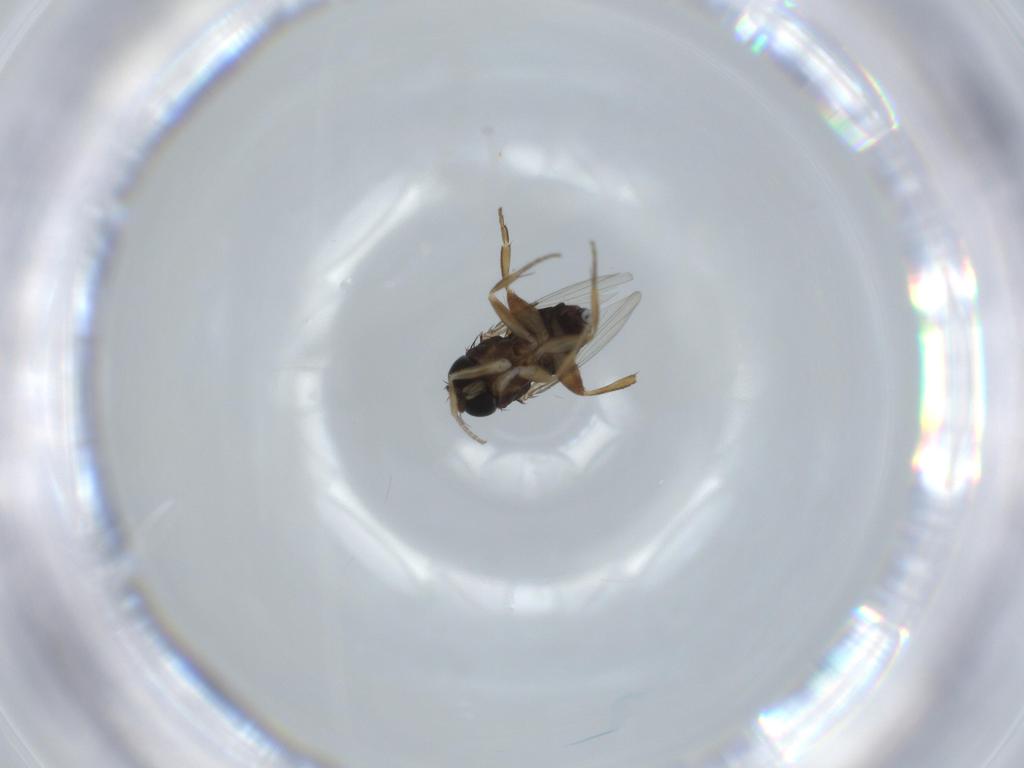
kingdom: Animalia
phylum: Arthropoda
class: Insecta
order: Diptera
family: Phoridae
